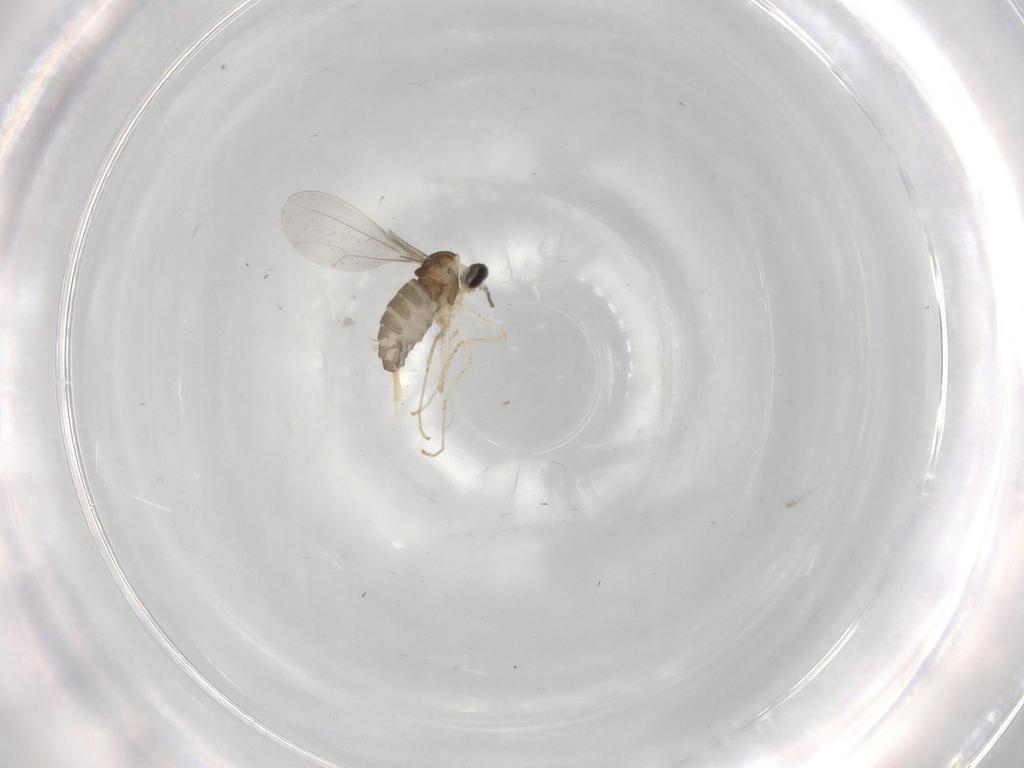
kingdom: Animalia
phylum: Arthropoda
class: Insecta
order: Diptera
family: Cecidomyiidae
